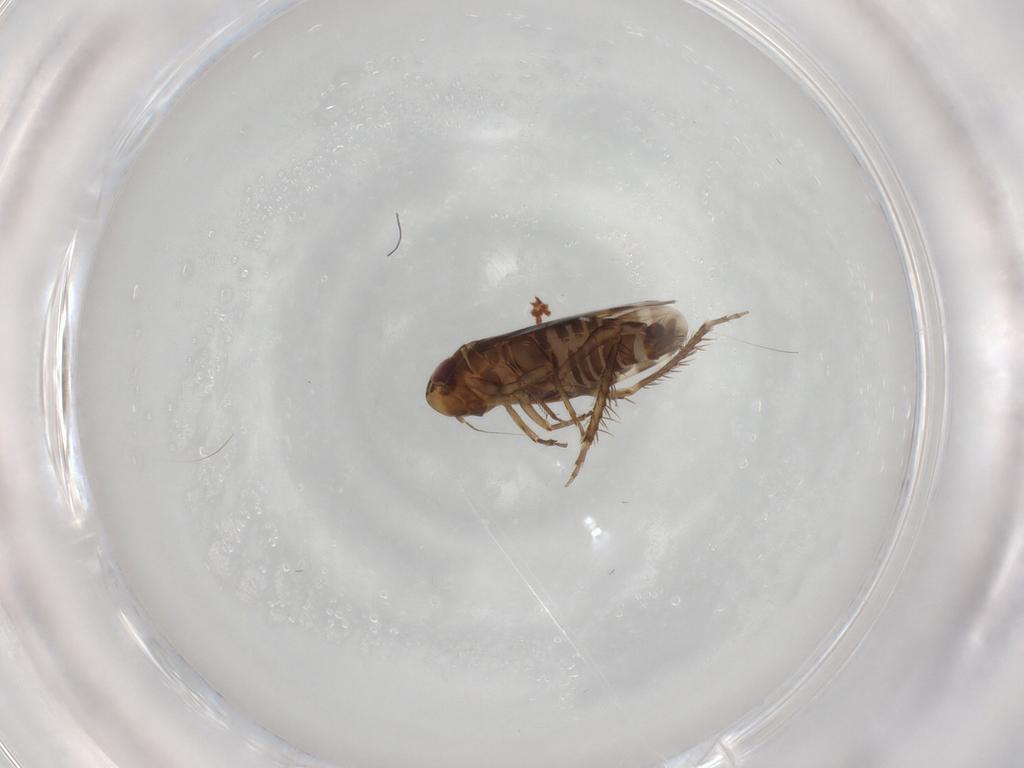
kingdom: Animalia
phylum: Arthropoda
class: Insecta
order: Hemiptera
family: Cicadellidae
